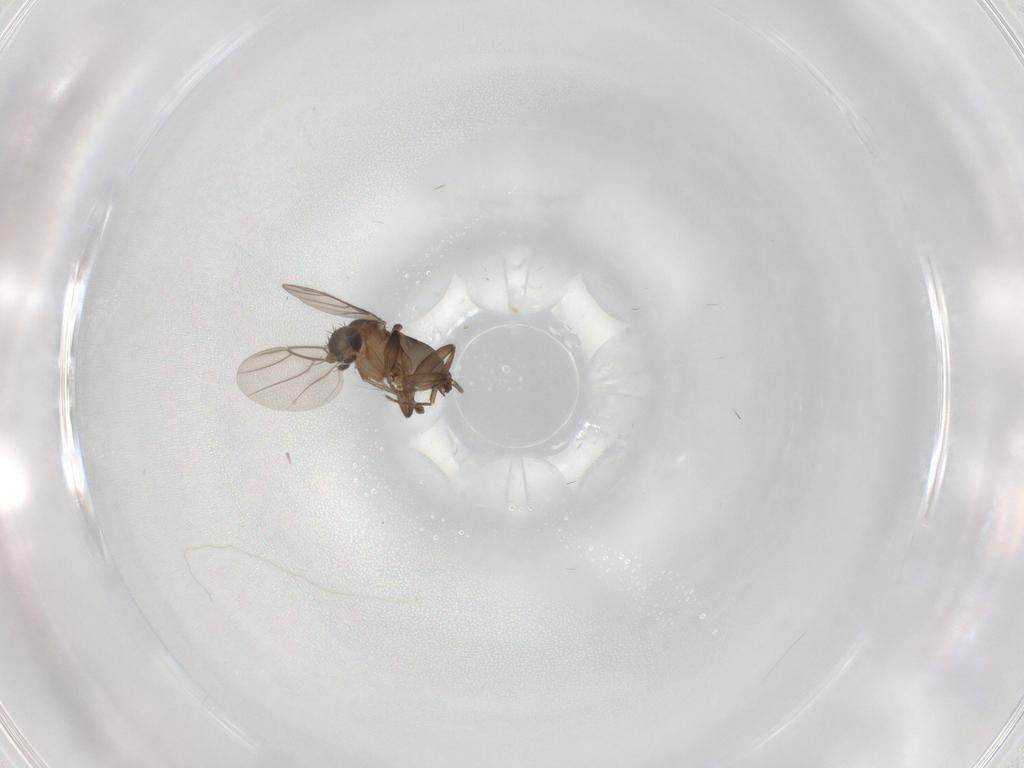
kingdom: Animalia
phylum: Arthropoda
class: Insecta
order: Diptera
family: Phoridae
